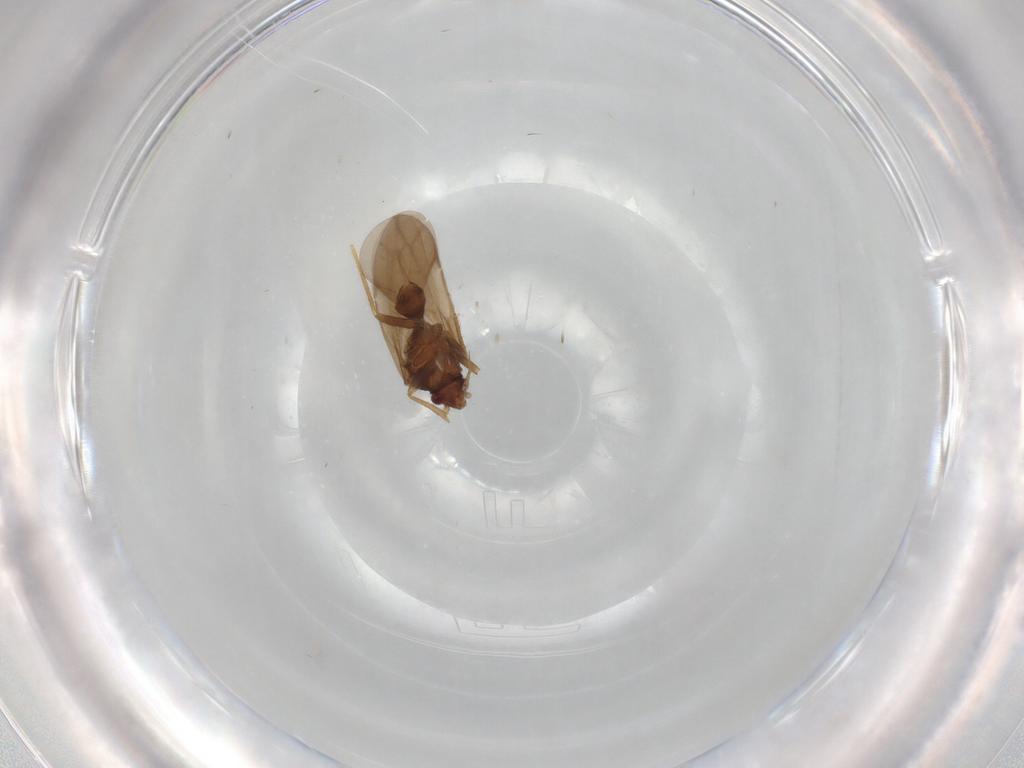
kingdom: Animalia
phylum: Arthropoda
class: Insecta
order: Hemiptera
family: Ceratocombidae
